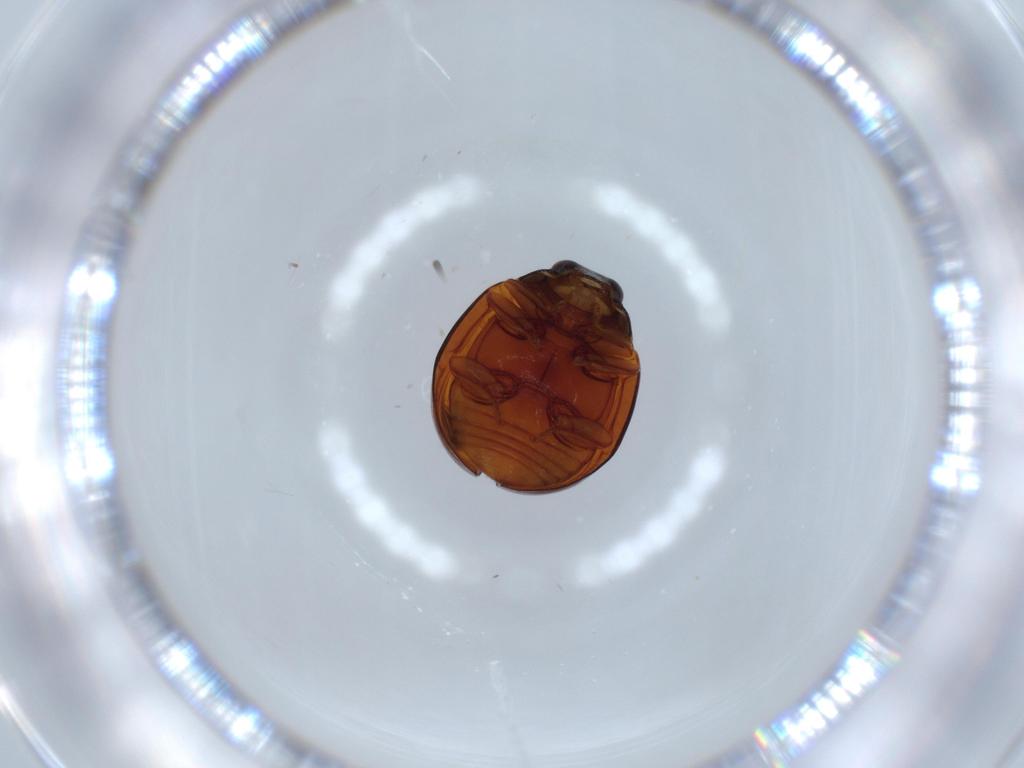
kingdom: Animalia
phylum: Arthropoda
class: Insecta
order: Coleoptera
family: Coccinellidae
